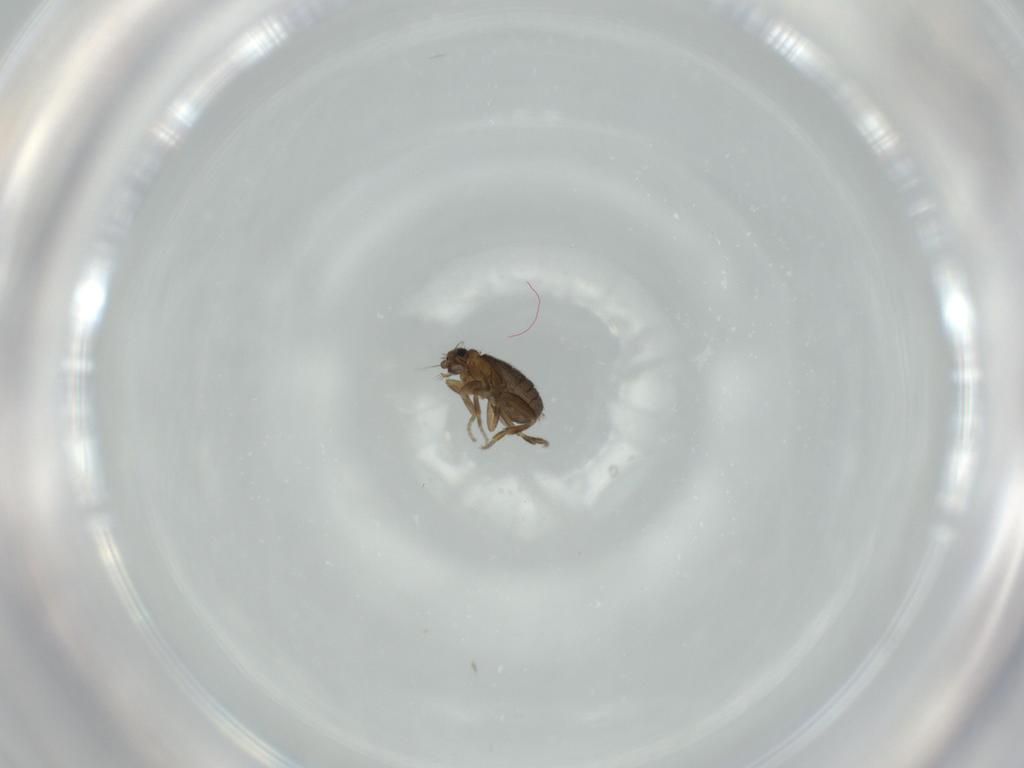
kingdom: Animalia
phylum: Arthropoda
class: Insecta
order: Diptera
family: Phoridae
